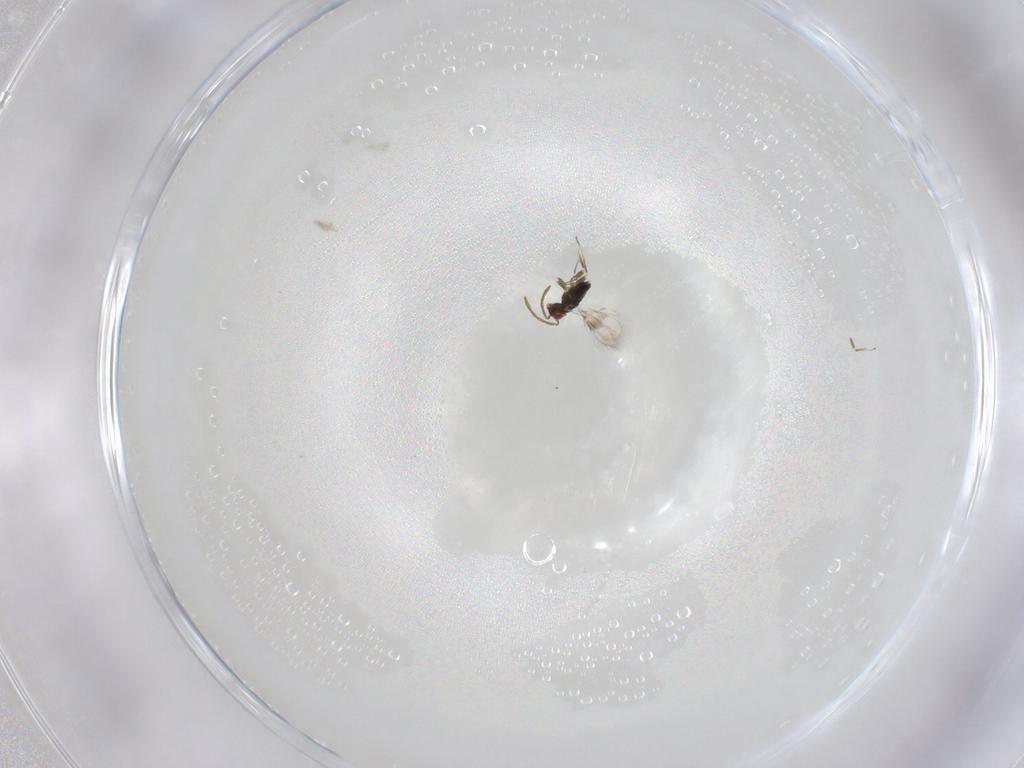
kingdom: Animalia
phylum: Arthropoda
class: Insecta
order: Hymenoptera
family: Azotidae
